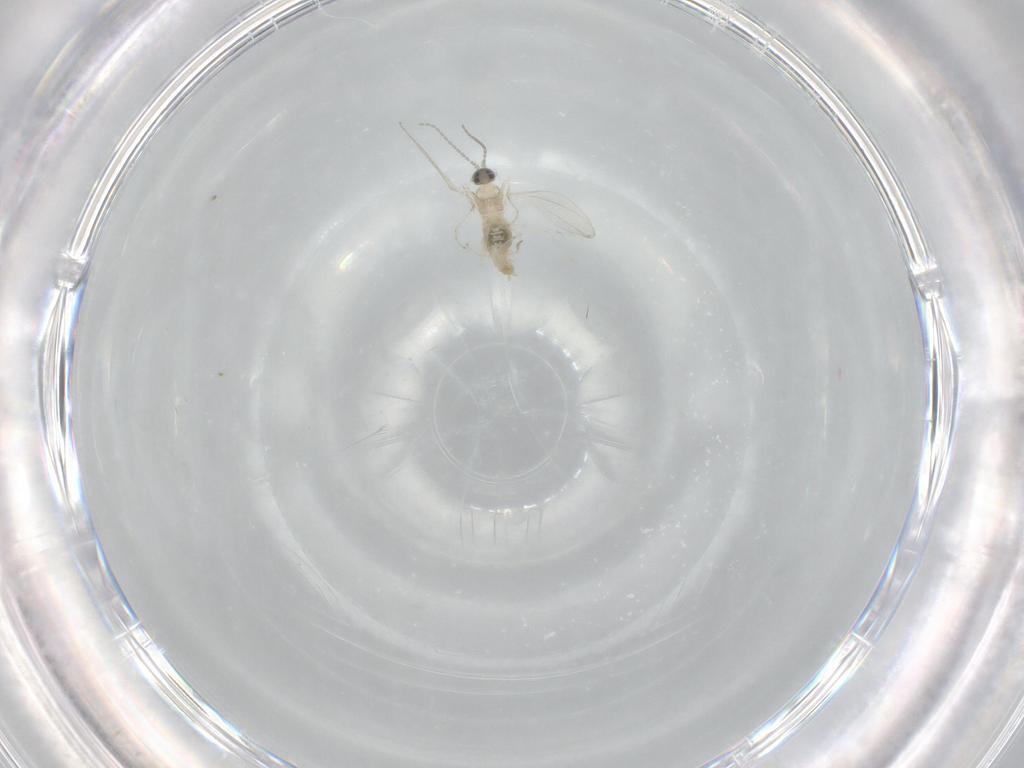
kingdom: Animalia
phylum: Arthropoda
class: Insecta
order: Diptera
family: Cecidomyiidae
